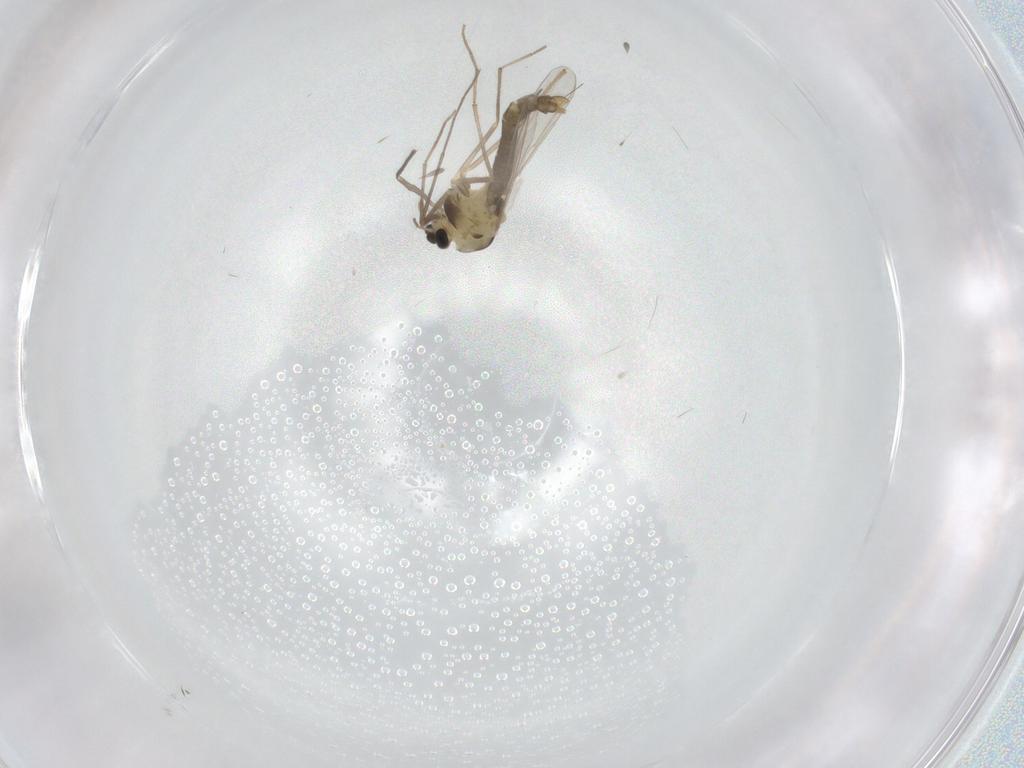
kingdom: Animalia
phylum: Arthropoda
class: Insecta
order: Diptera
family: Chironomidae
